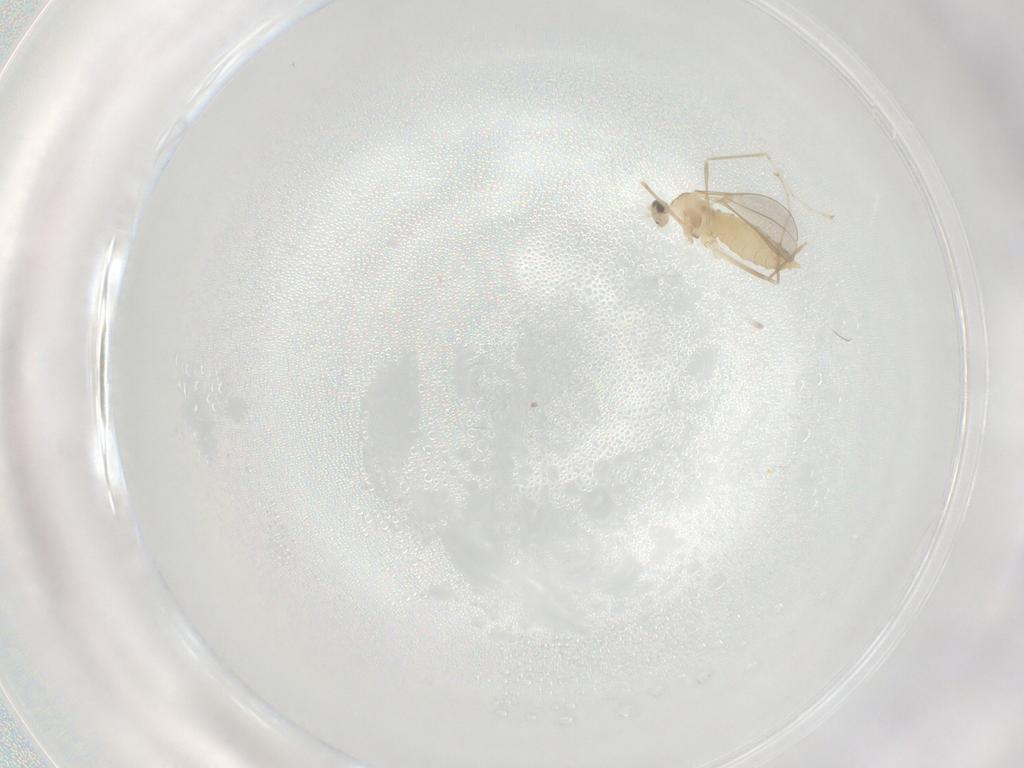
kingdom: Animalia
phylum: Arthropoda
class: Insecta
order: Diptera
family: Cecidomyiidae
